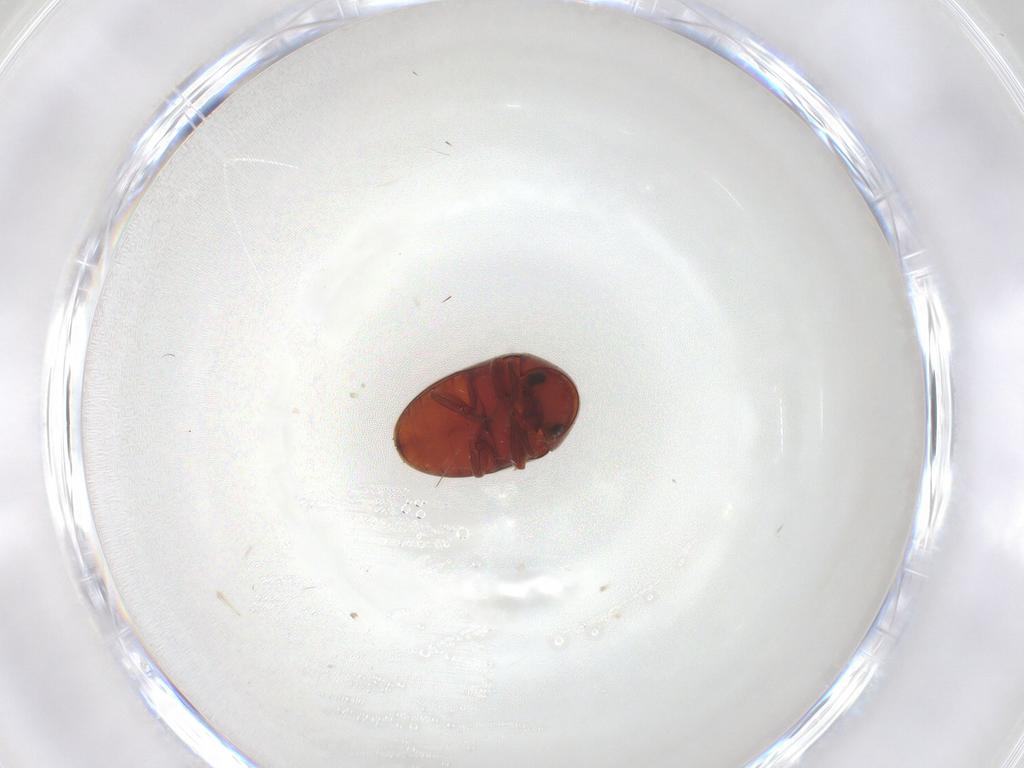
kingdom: Animalia
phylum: Arthropoda
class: Insecta
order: Coleoptera
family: Ptinidae
